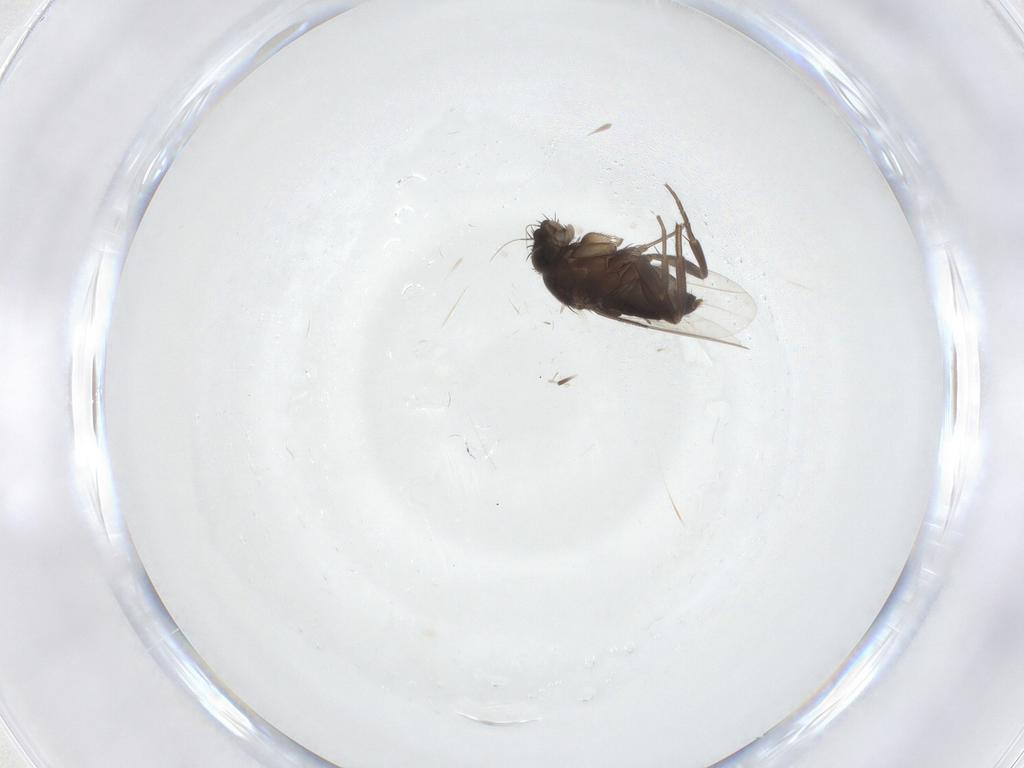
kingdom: Animalia
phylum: Arthropoda
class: Insecta
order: Diptera
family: Phoridae
